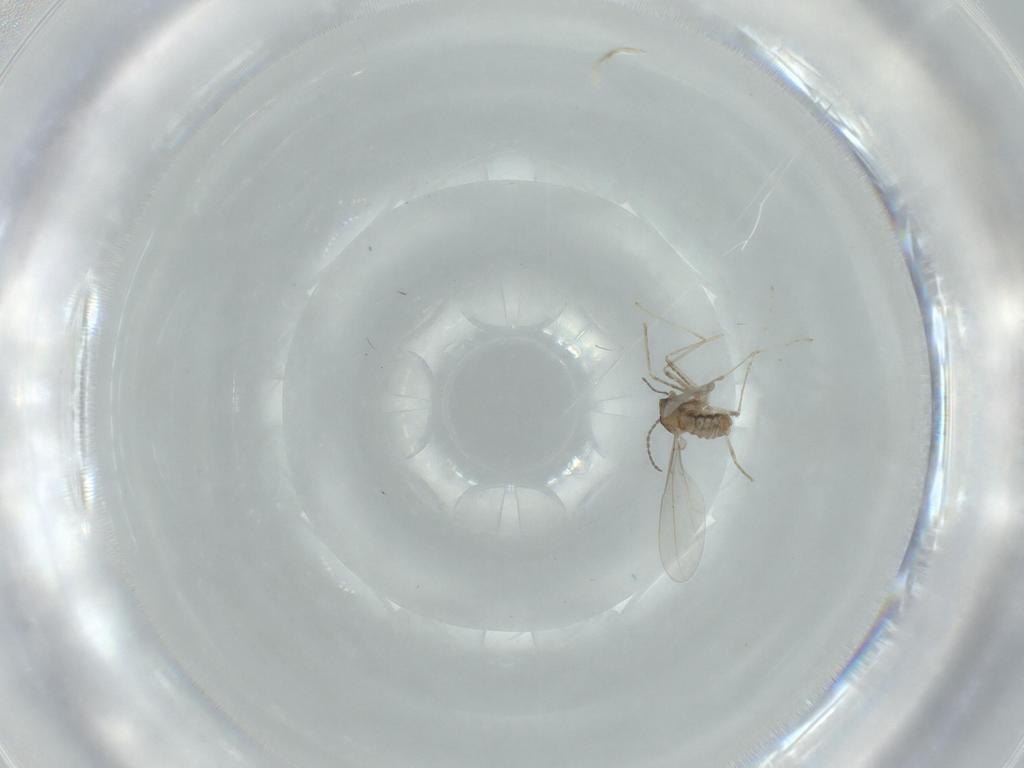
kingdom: Animalia
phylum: Arthropoda
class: Insecta
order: Diptera
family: Cecidomyiidae
